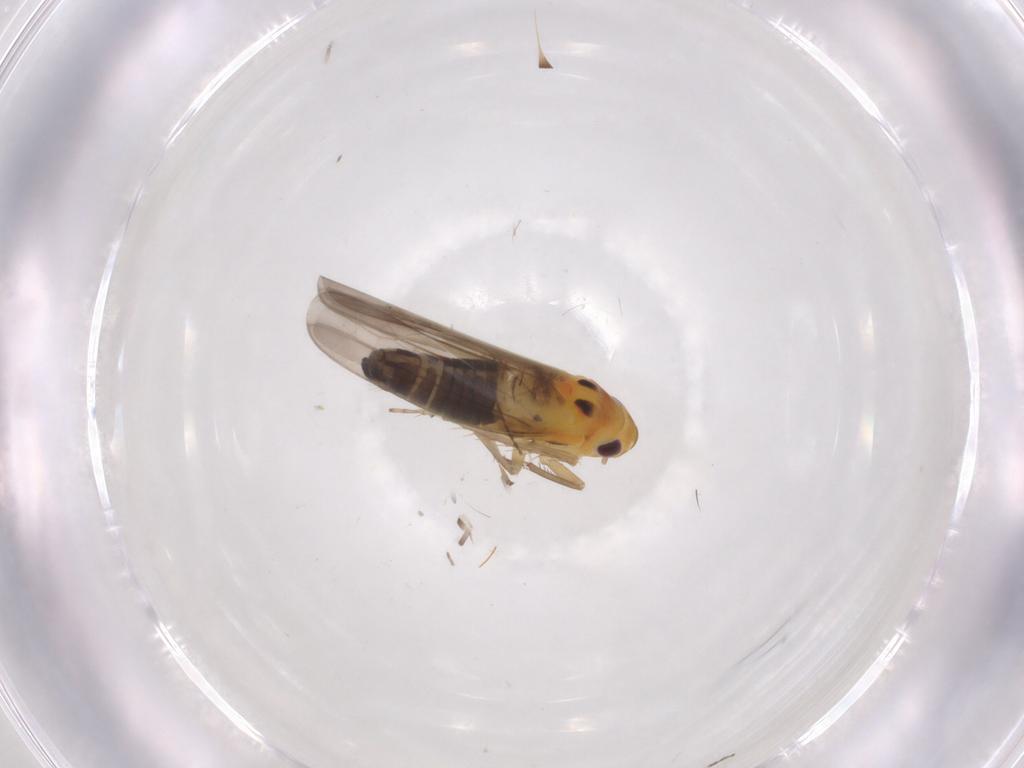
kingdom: Animalia
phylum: Arthropoda
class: Insecta
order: Hemiptera
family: Cicadellidae
